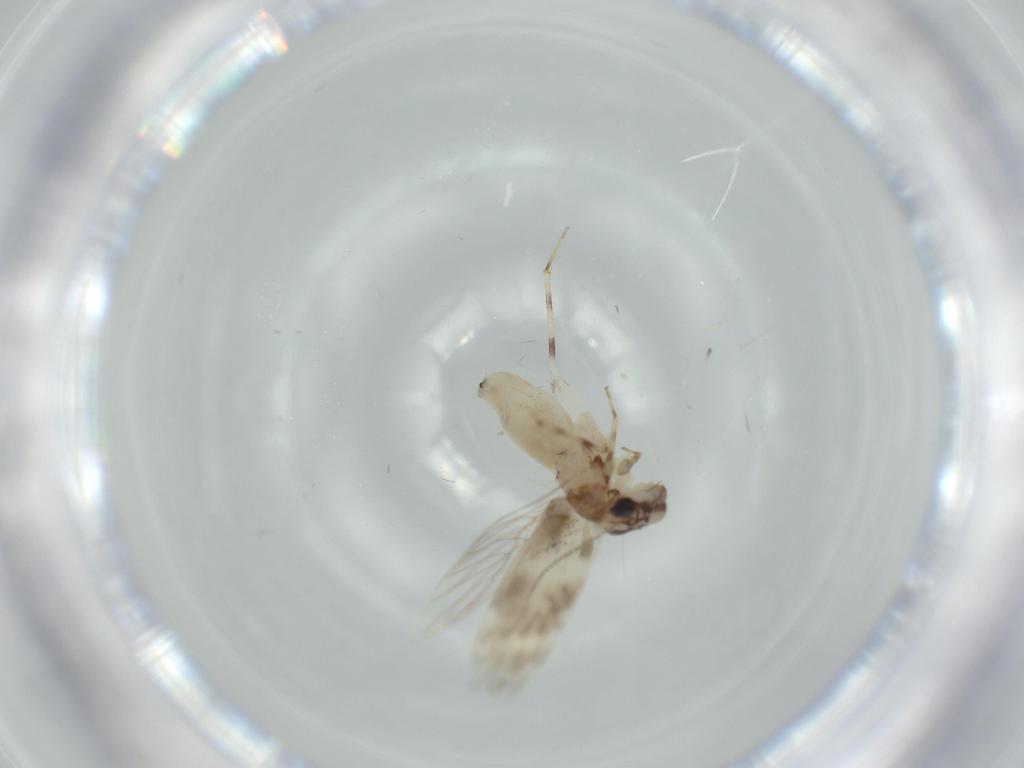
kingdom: Animalia
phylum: Arthropoda
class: Insecta
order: Psocodea
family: Lepidopsocidae
